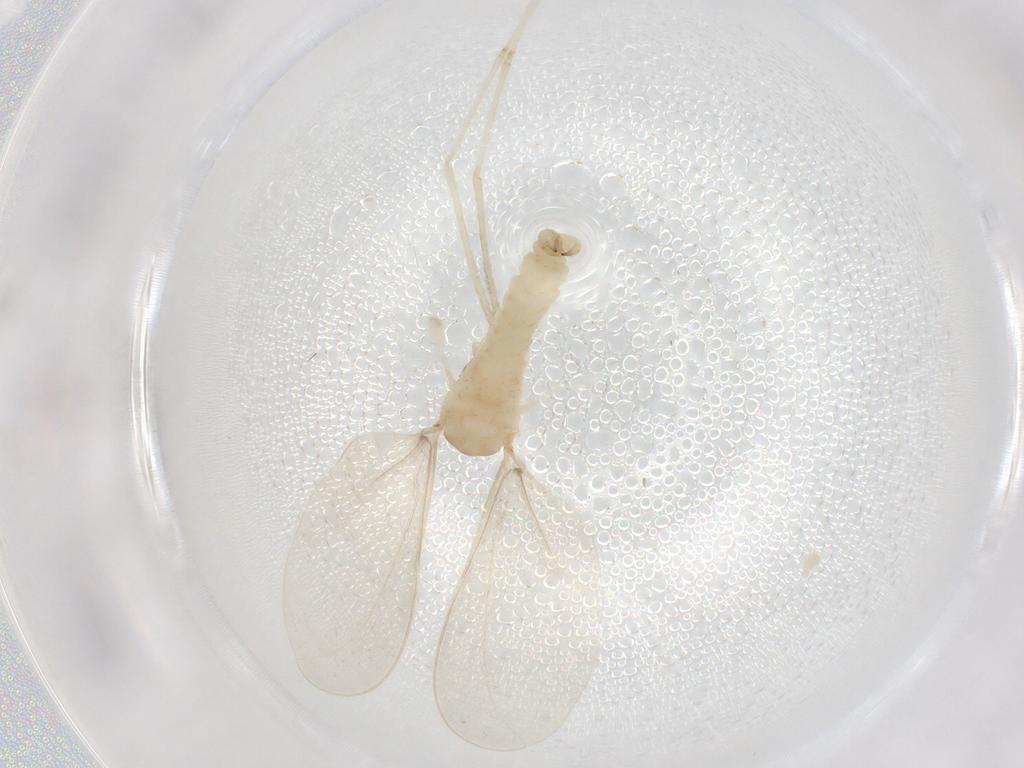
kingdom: Animalia
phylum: Arthropoda
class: Insecta
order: Diptera
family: Cecidomyiidae
